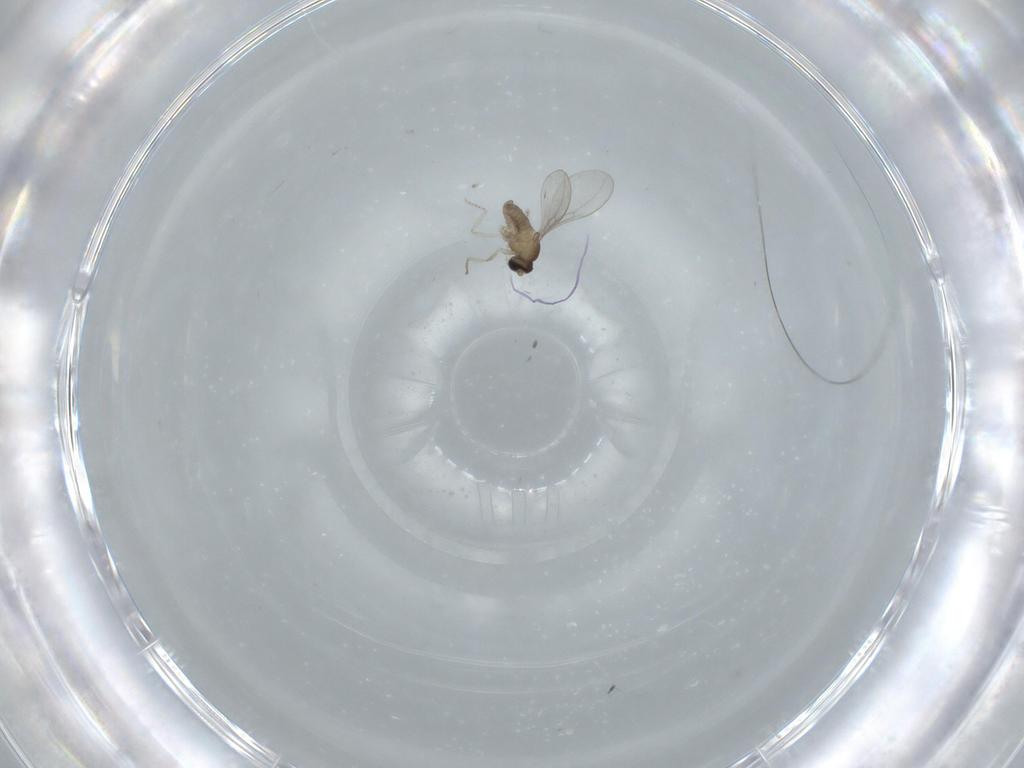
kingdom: Animalia
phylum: Arthropoda
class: Insecta
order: Diptera
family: Cecidomyiidae
